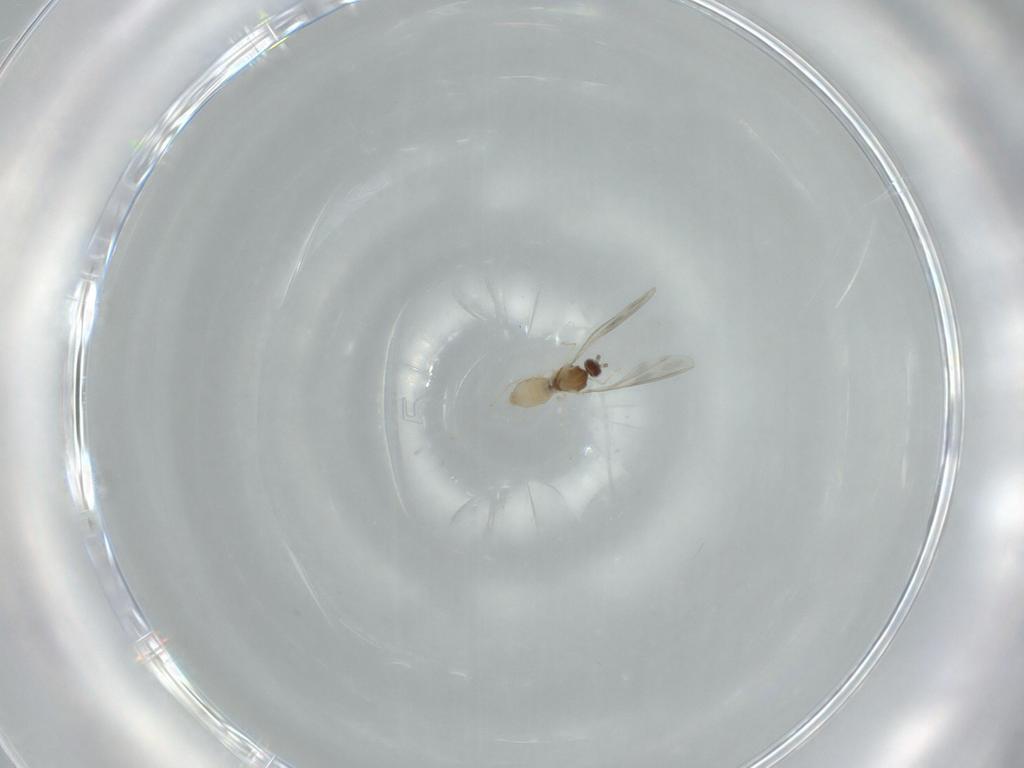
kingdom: Animalia
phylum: Arthropoda
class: Insecta
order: Diptera
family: Cecidomyiidae
